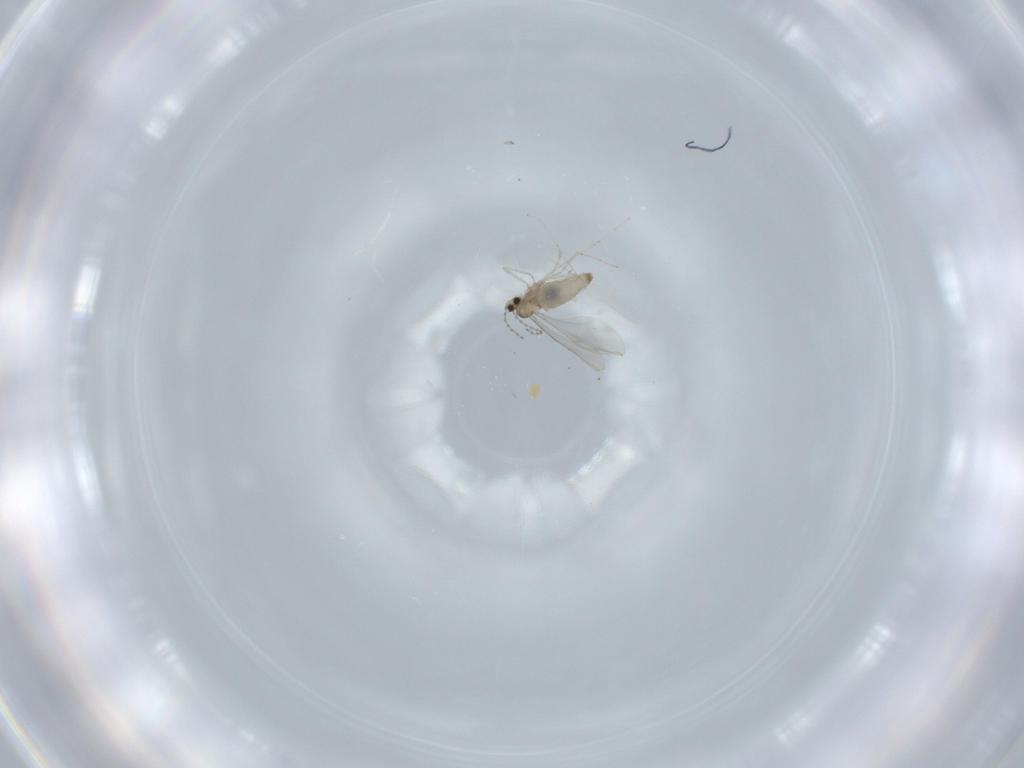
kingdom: Animalia
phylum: Arthropoda
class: Insecta
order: Diptera
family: Cecidomyiidae
